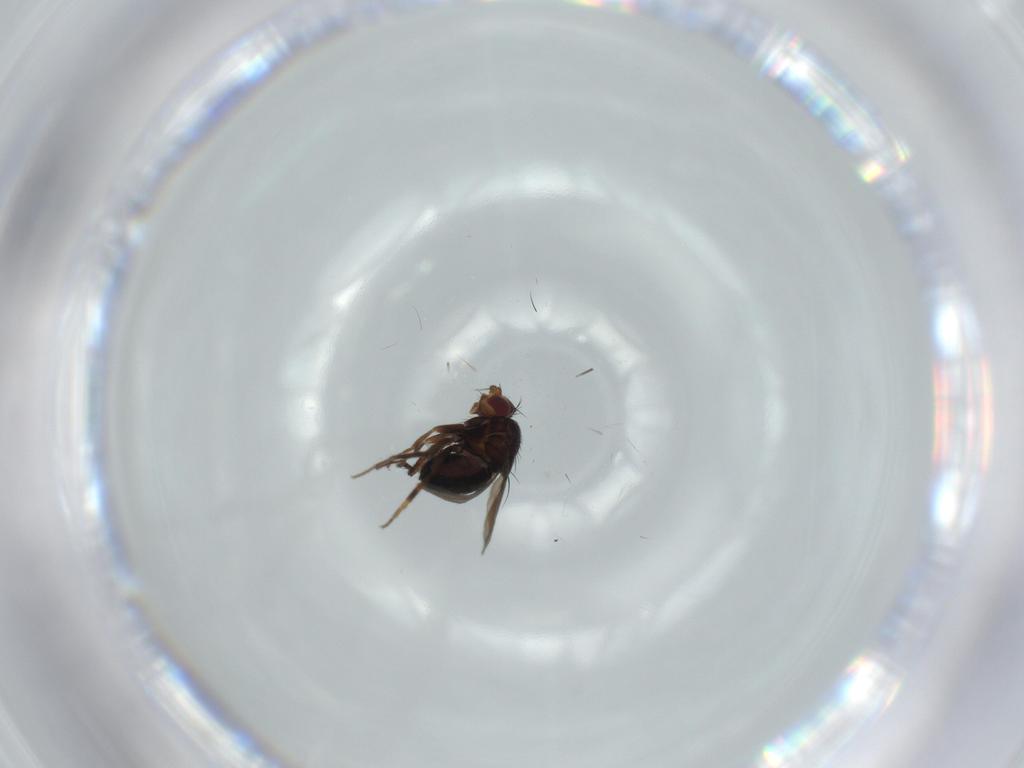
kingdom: Animalia
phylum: Arthropoda
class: Insecta
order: Diptera
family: Sphaeroceridae
